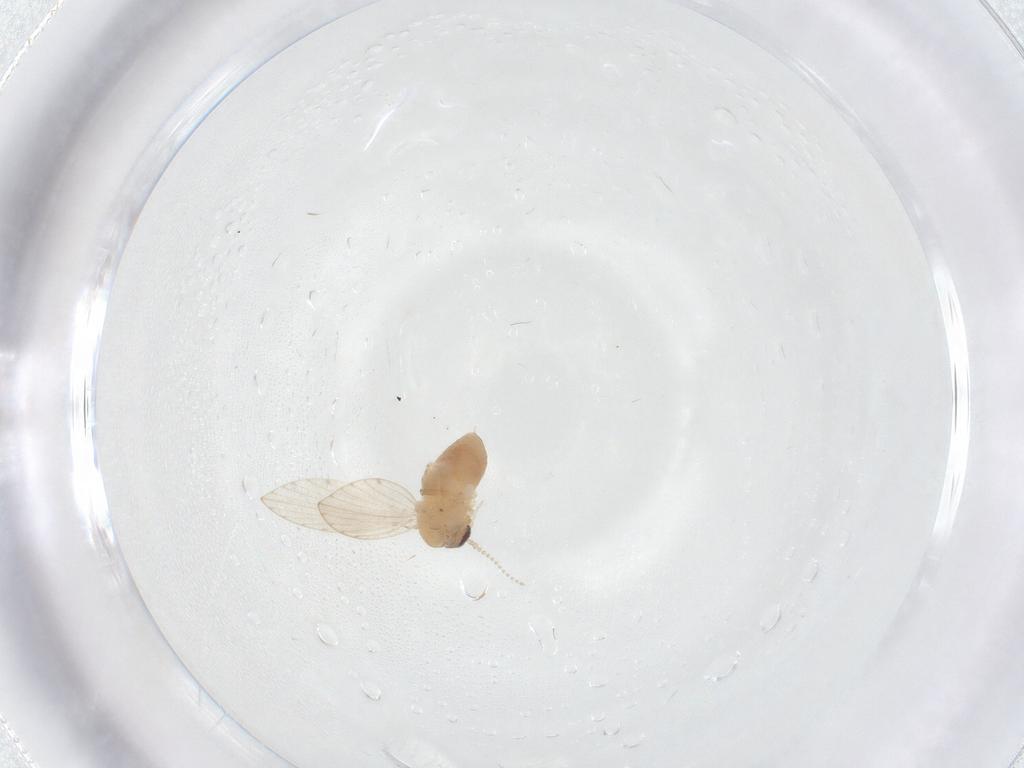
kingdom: Animalia
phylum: Arthropoda
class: Insecta
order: Diptera
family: Psychodidae
